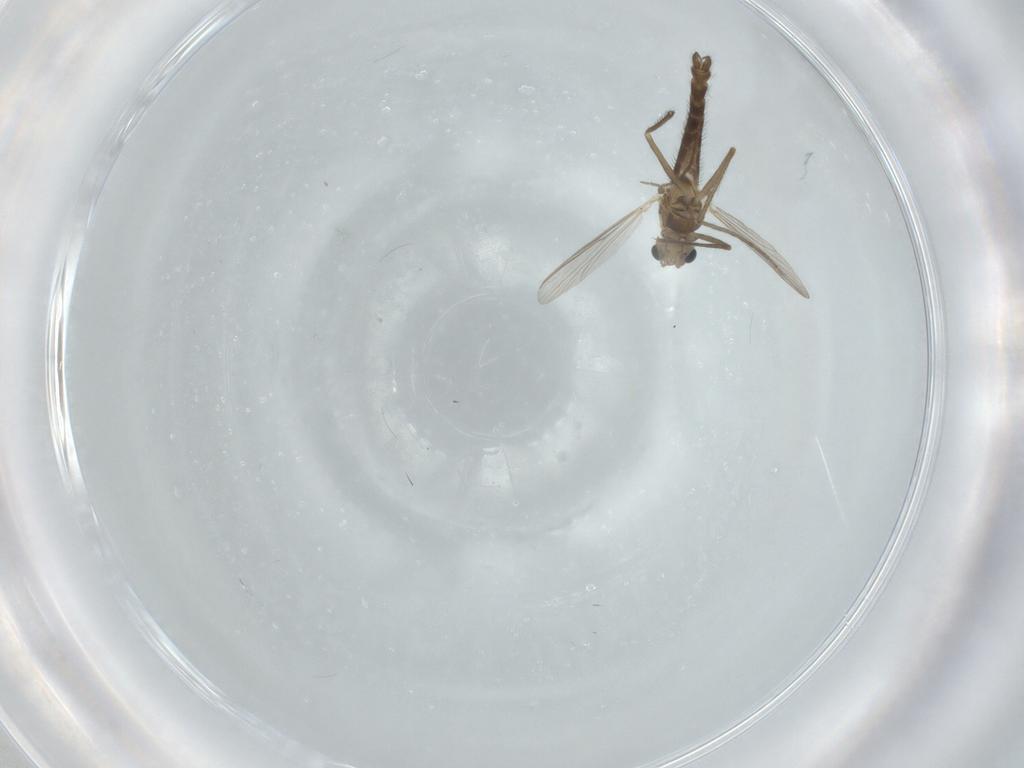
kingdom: Animalia
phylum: Arthropoda
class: Insecta
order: Diptera
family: Chironomidae
